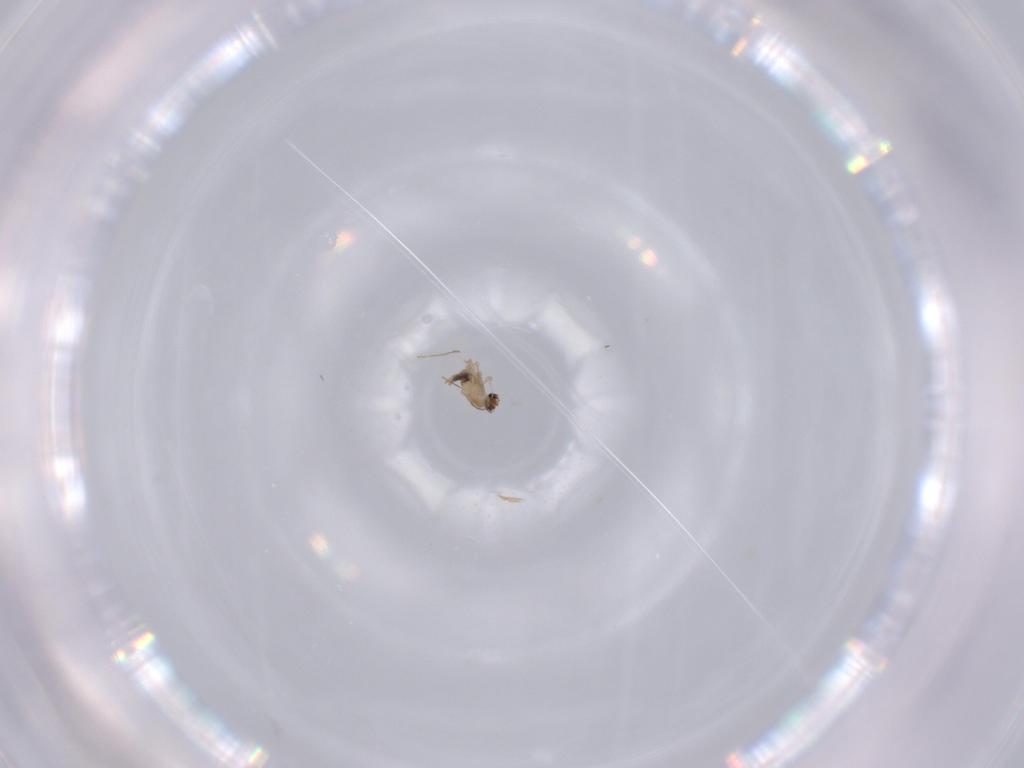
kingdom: Animalia
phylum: Arthropoda
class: Insecta
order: Diptera
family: Cecidomyiidae
